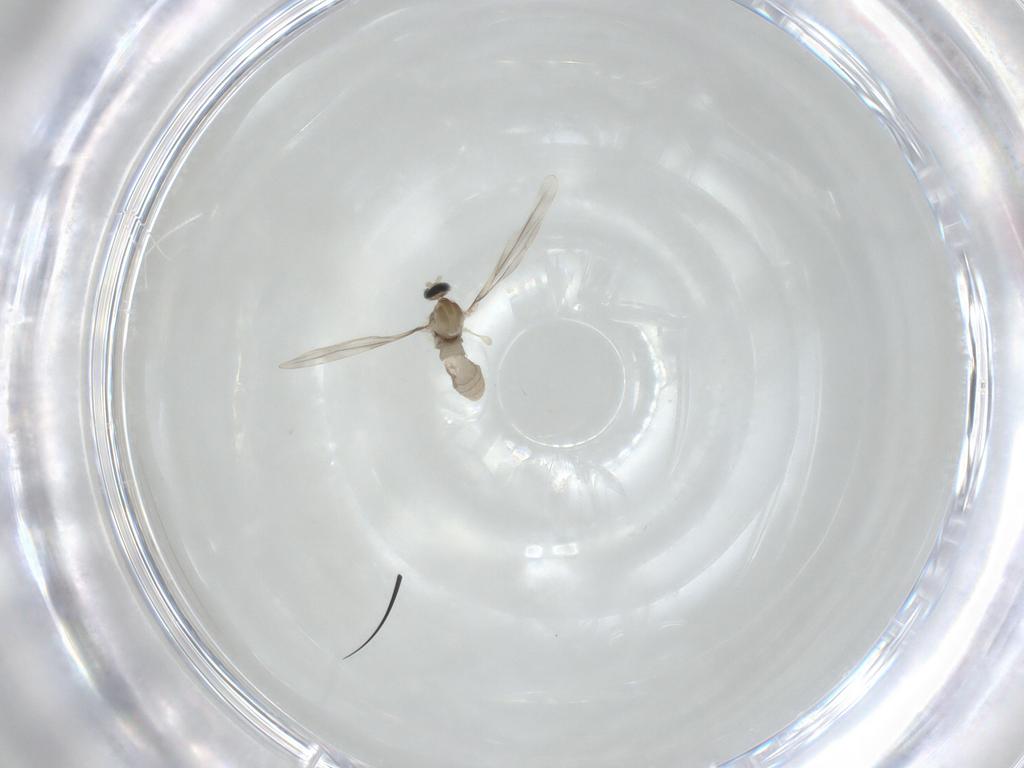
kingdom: Animalia
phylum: Arthropoda
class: Insecta
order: Diptera
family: Cecidomyiidae
